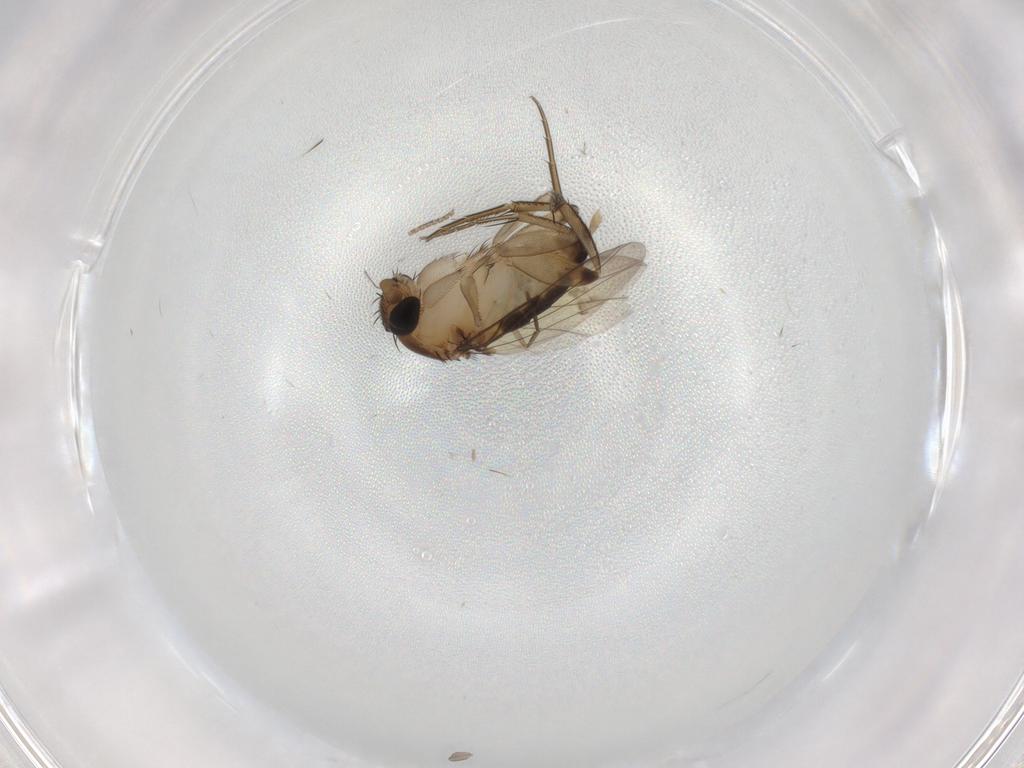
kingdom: Animalia
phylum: Arthropoda
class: Insecta
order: Diptera
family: Phoridae
